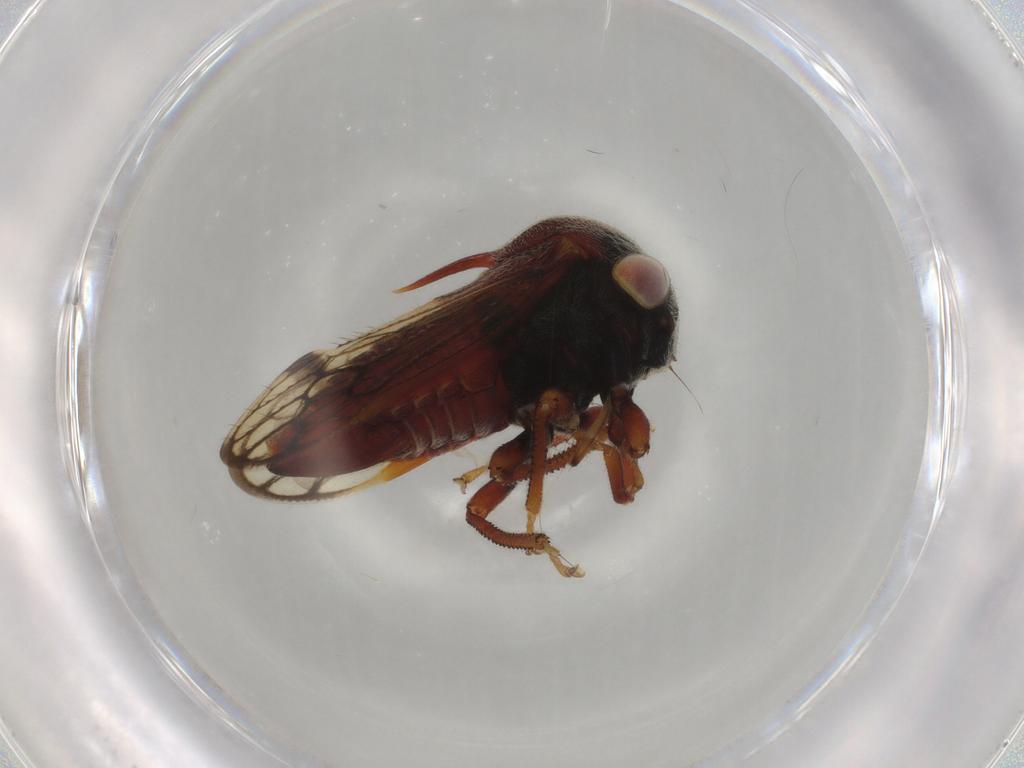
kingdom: Animalia
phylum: Arthropoda
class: Insecta
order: Hemiptera
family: Membracidae
